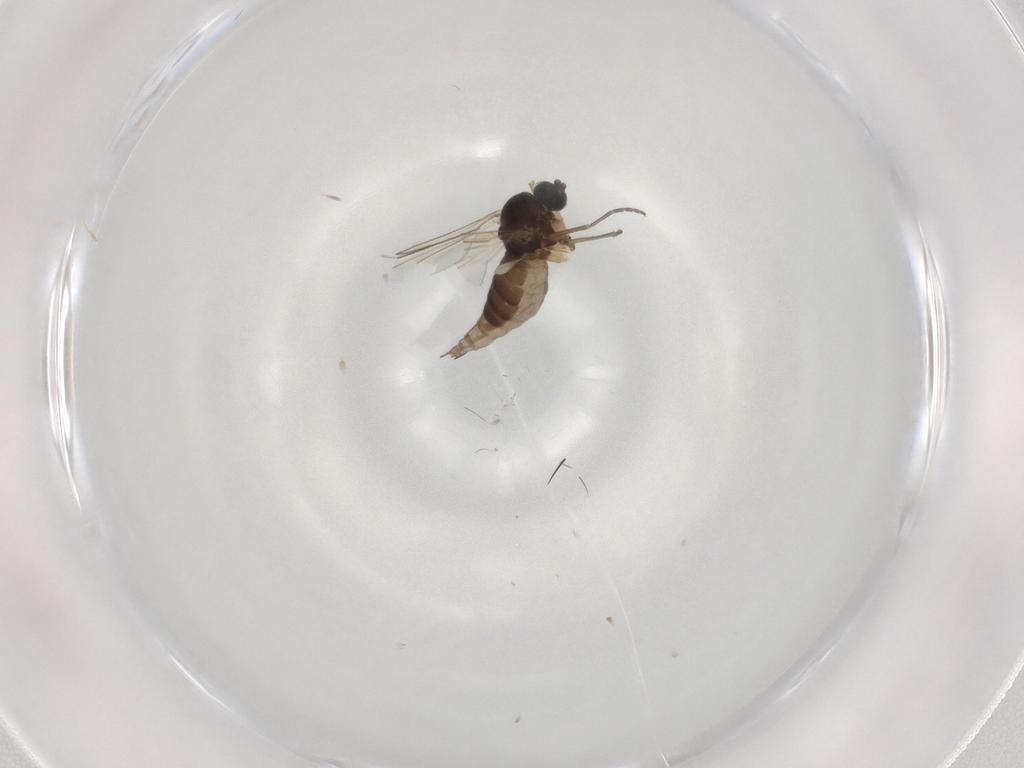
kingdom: Animalia
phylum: Arthropoda
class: Insecta
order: Diptera
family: Sciaridae
